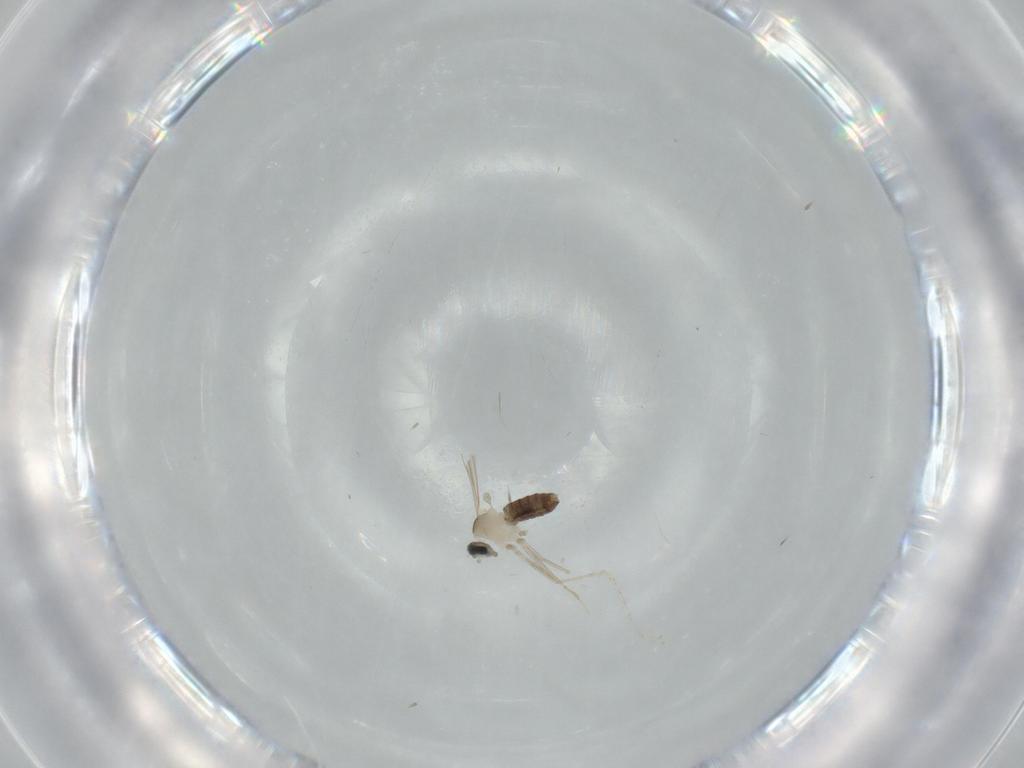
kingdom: Animalia
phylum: Arthropoda
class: Insecta
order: Diptera
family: Cecidomyiidae
